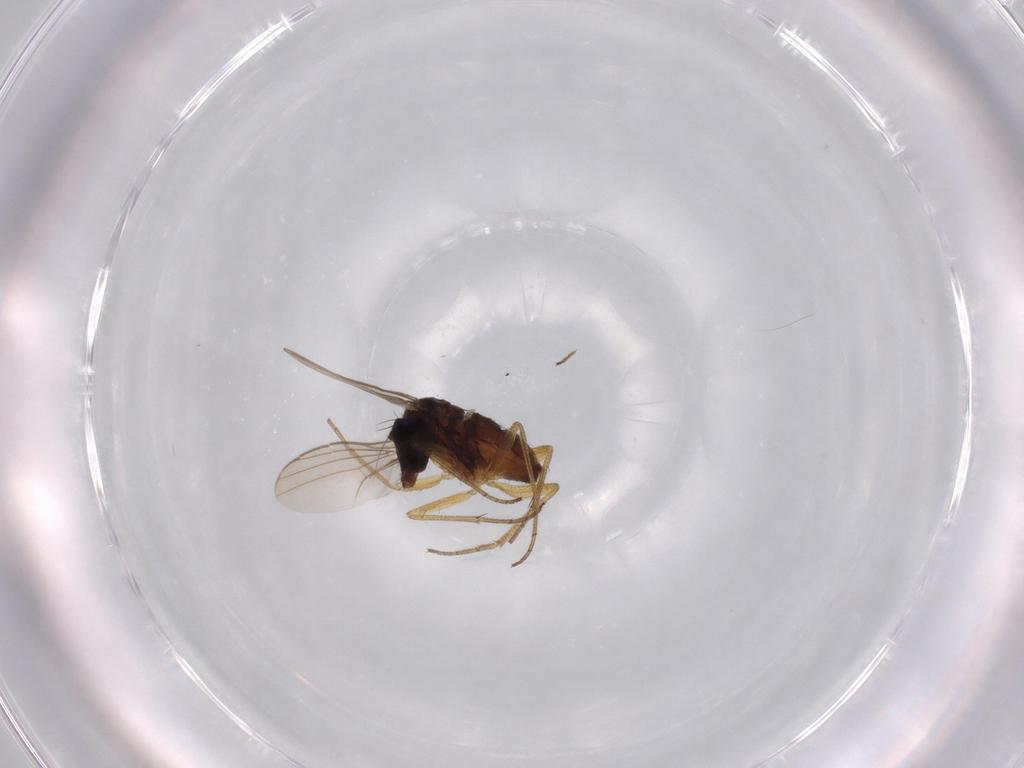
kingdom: Animalia
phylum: Arthropoda
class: Insecta
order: Diptera
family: Dolichopodidae
